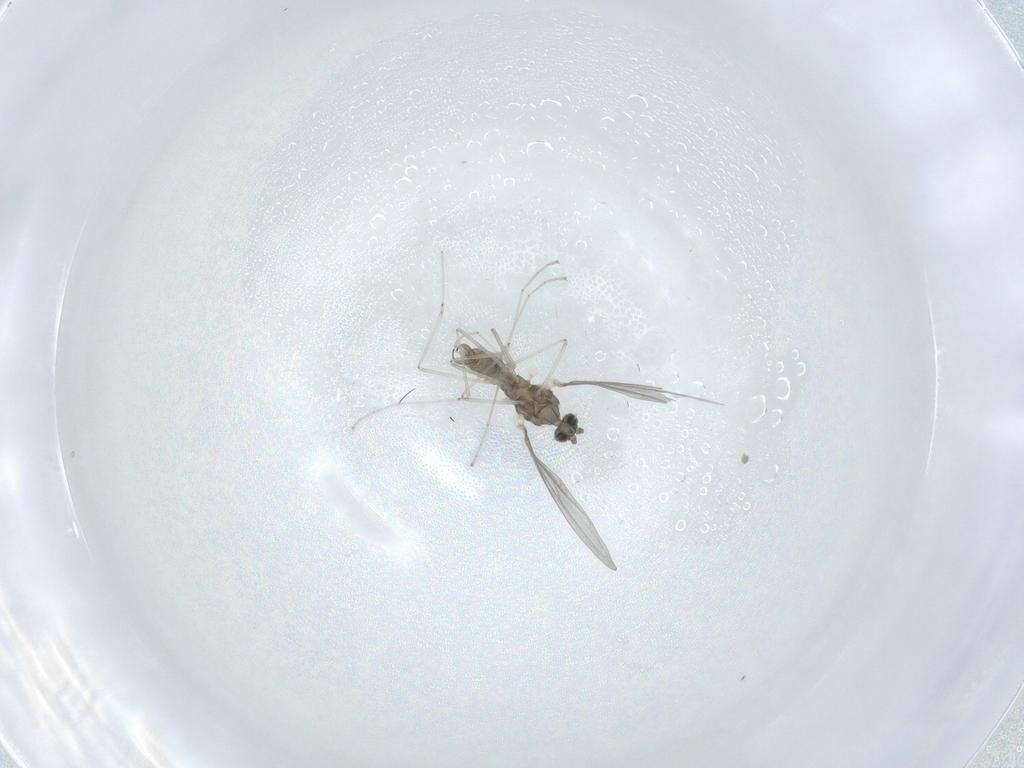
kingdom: Animalia
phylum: Arthropoda
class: Insecta
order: Diptera
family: Cecidomyiidae
